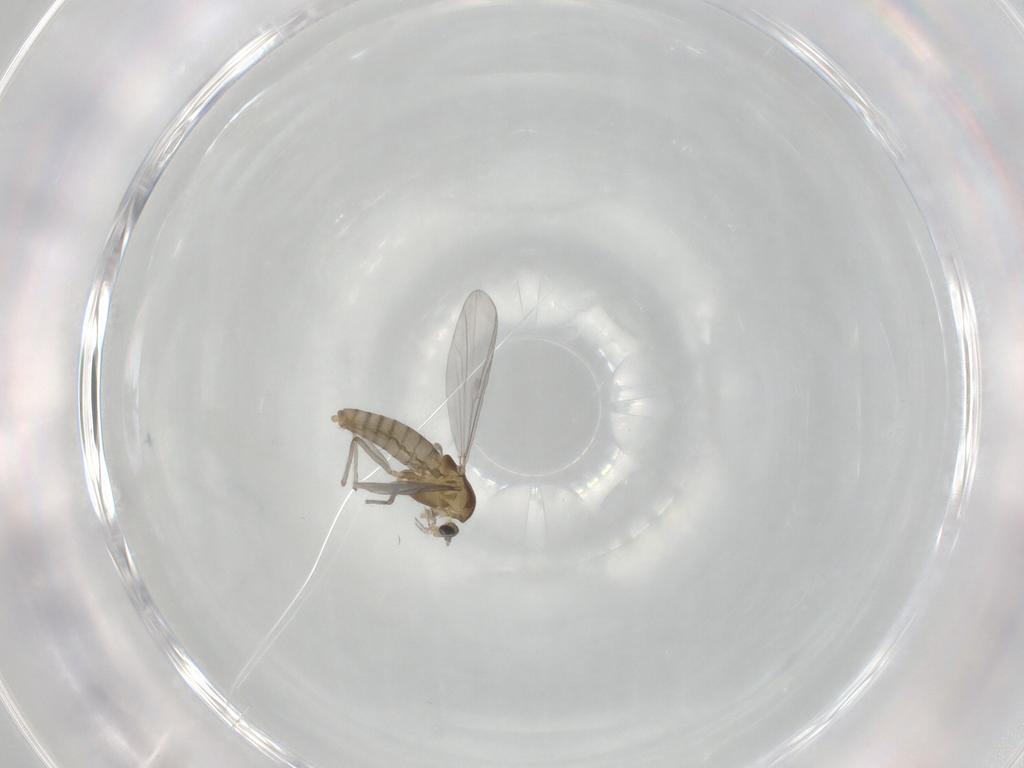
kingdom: Animalia
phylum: Arthropoda
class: Insecta
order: Diptera
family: Chironomidae
